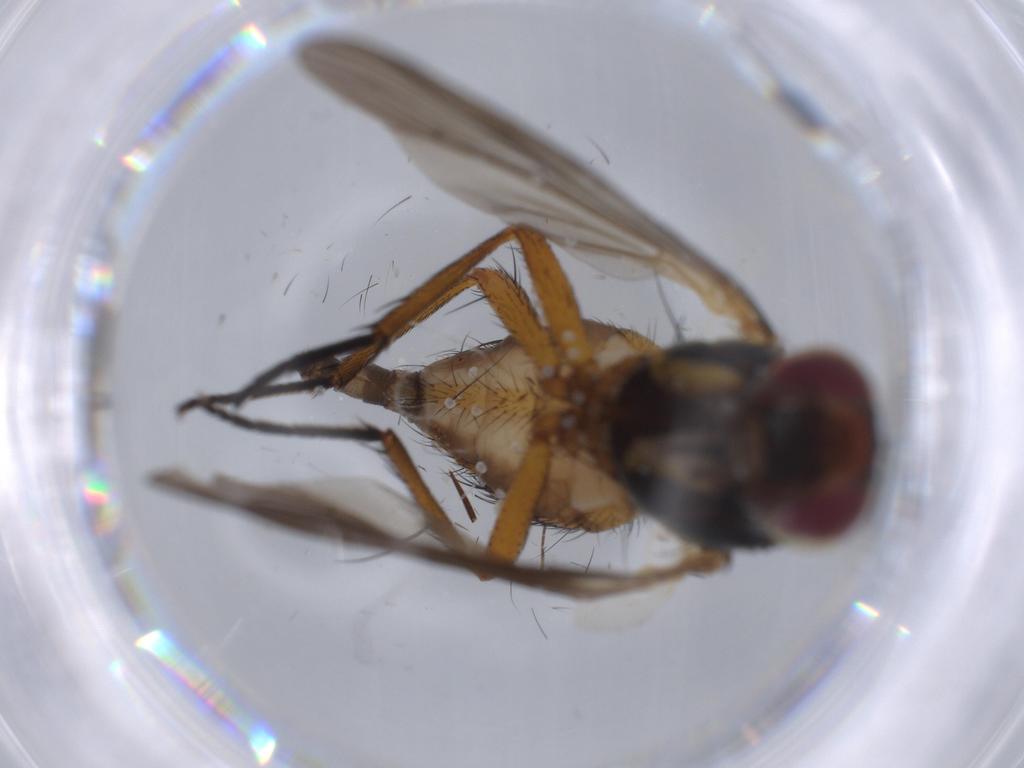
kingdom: Animalia
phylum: Arthropoda
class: Insecta
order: Diptera
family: Anthomyiidae
